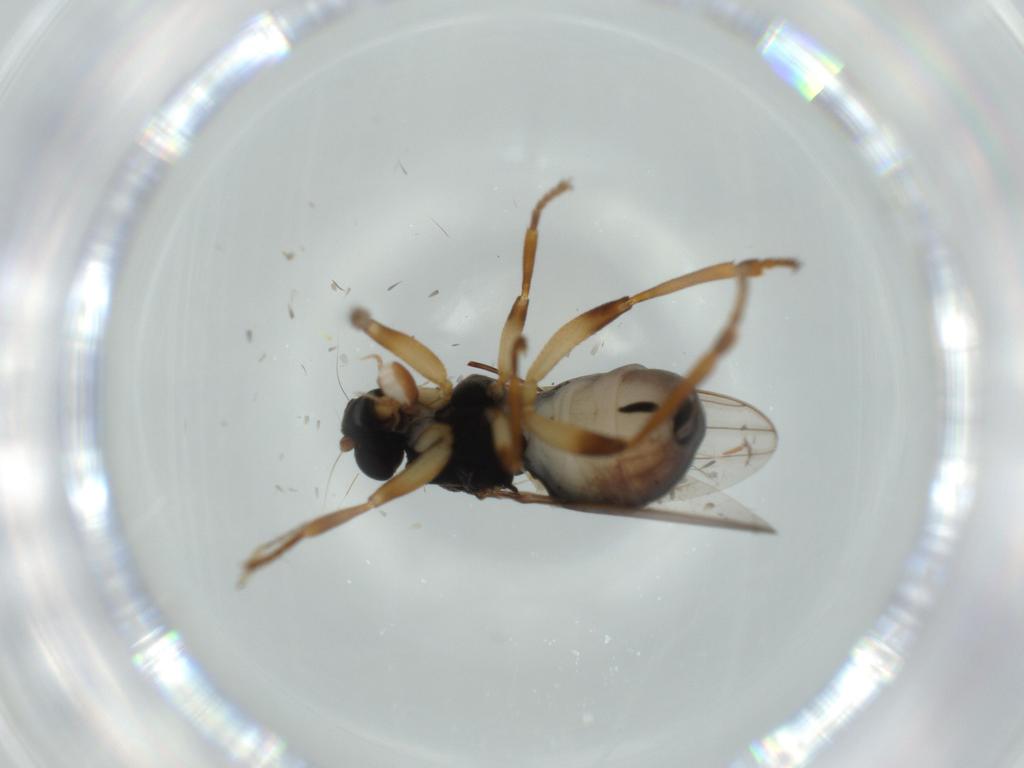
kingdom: Animalia
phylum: Arthropoda
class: Insecta
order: Diptera
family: Sphaeroceridae
